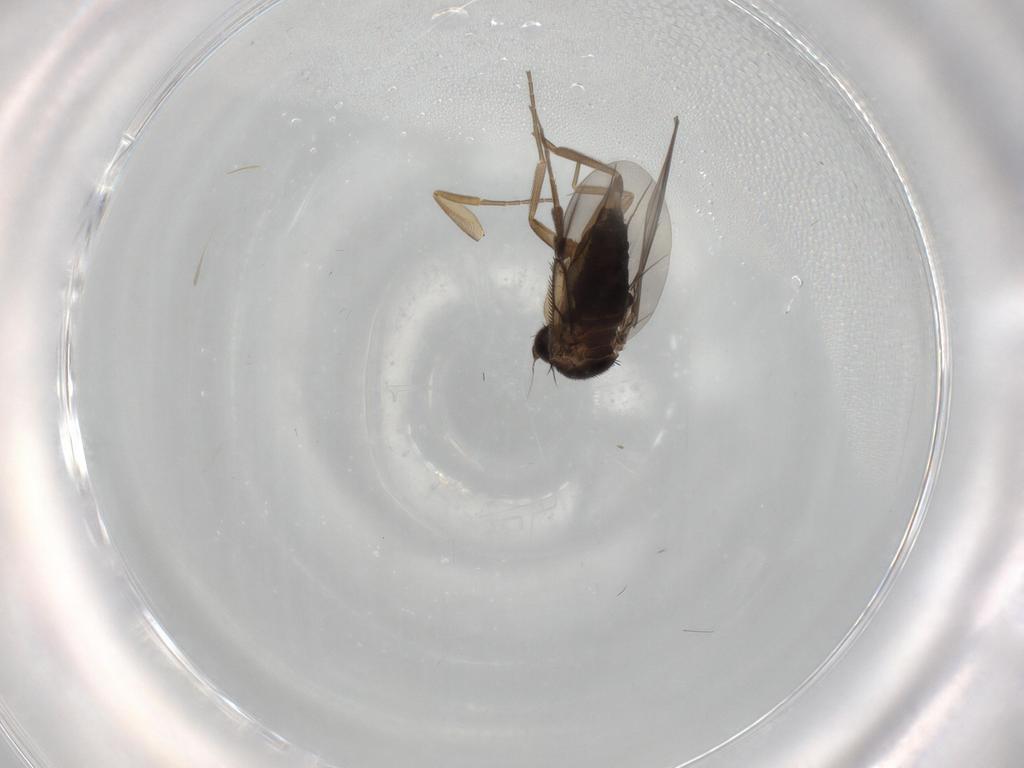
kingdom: Animalia
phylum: Arthropoda
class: Insecta
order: Diptera
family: Phoridae
